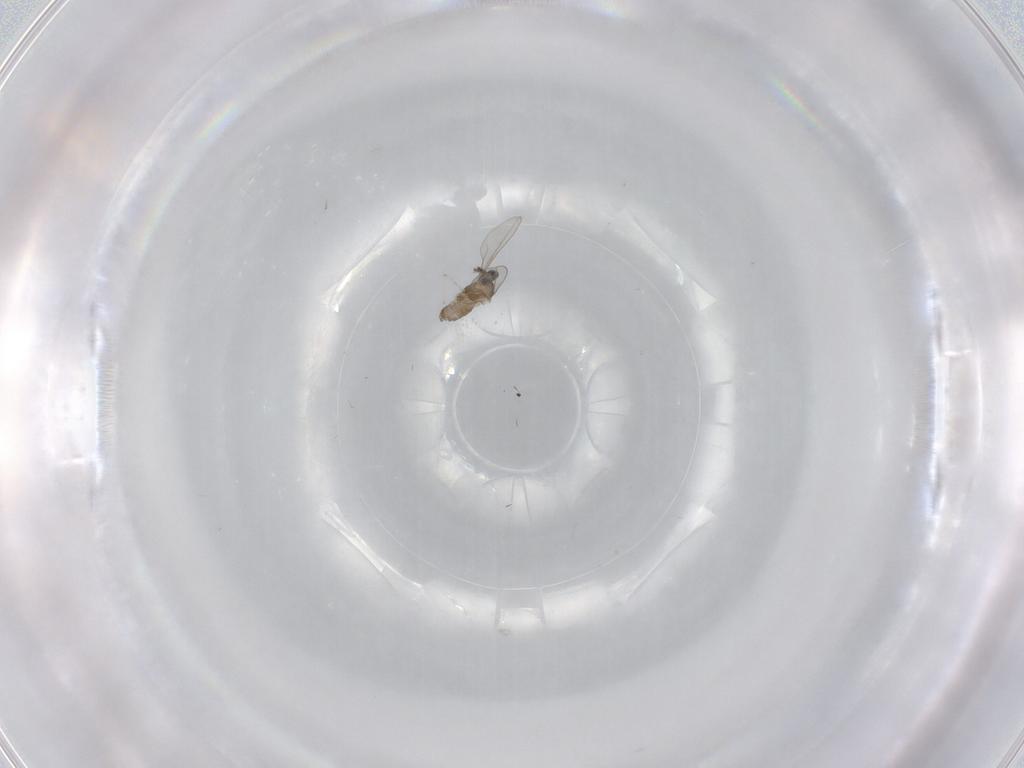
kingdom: Animalia
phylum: Arthropoda
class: Insecta
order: Diptera
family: Cecidomyiidae
